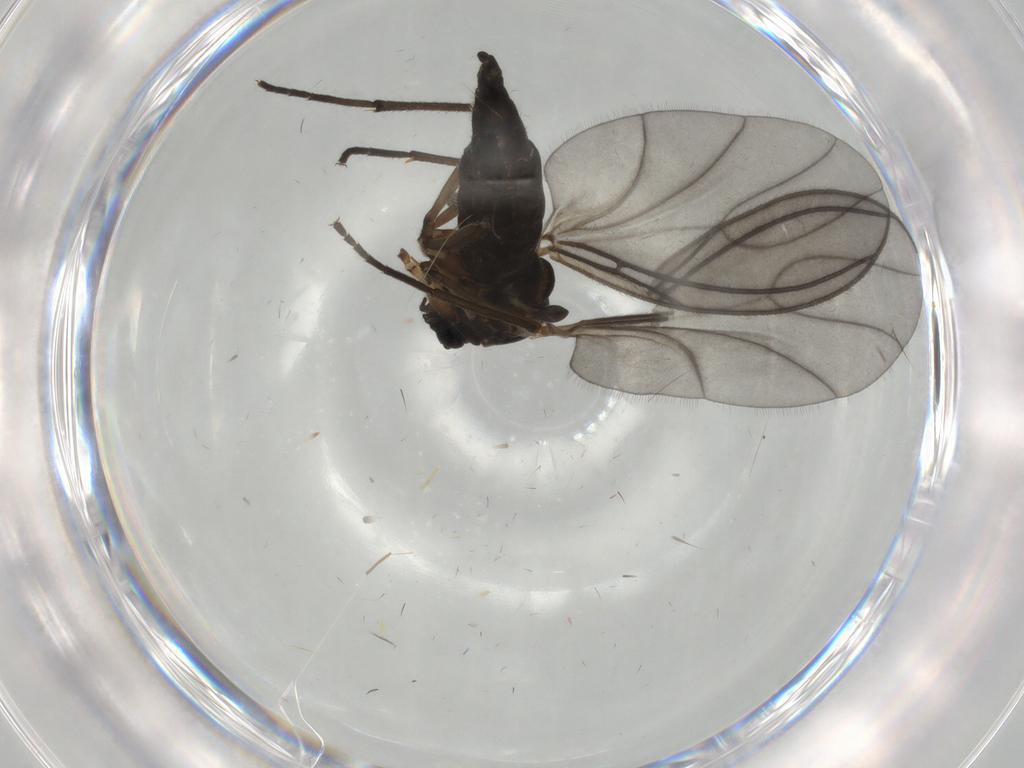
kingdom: Animalia
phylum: Arthropoda
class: Insecta
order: Diptera
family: Sciaridae
